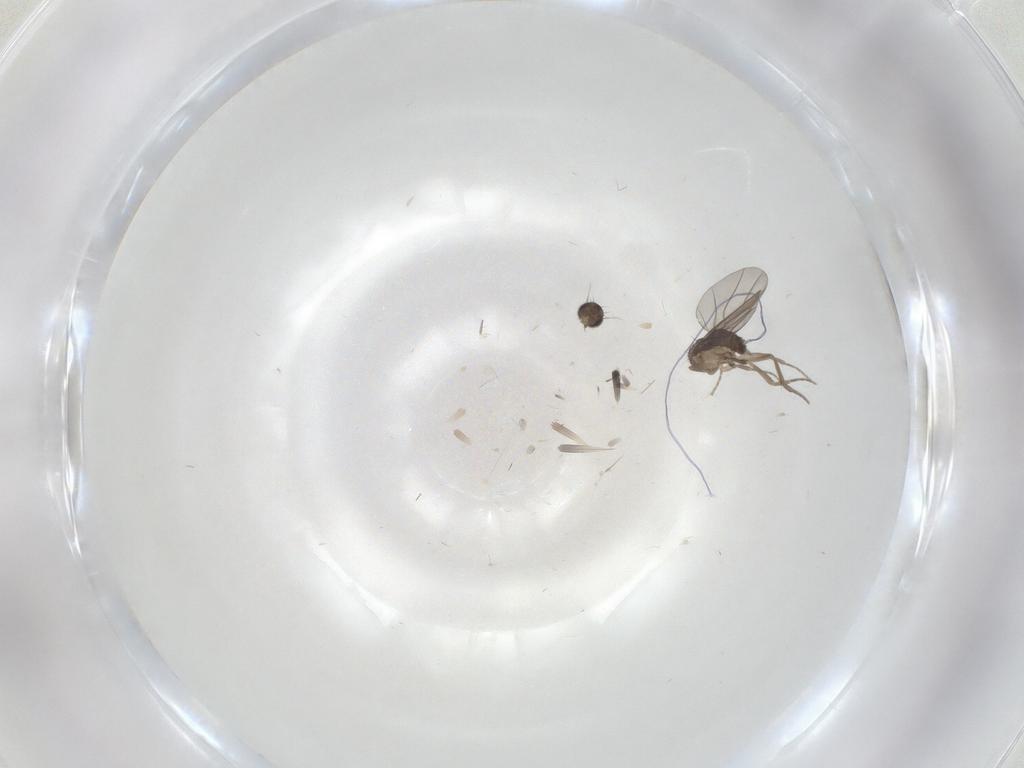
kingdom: Animalia
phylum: Arthropoda
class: Insecta
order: Diptera
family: Phoridae
